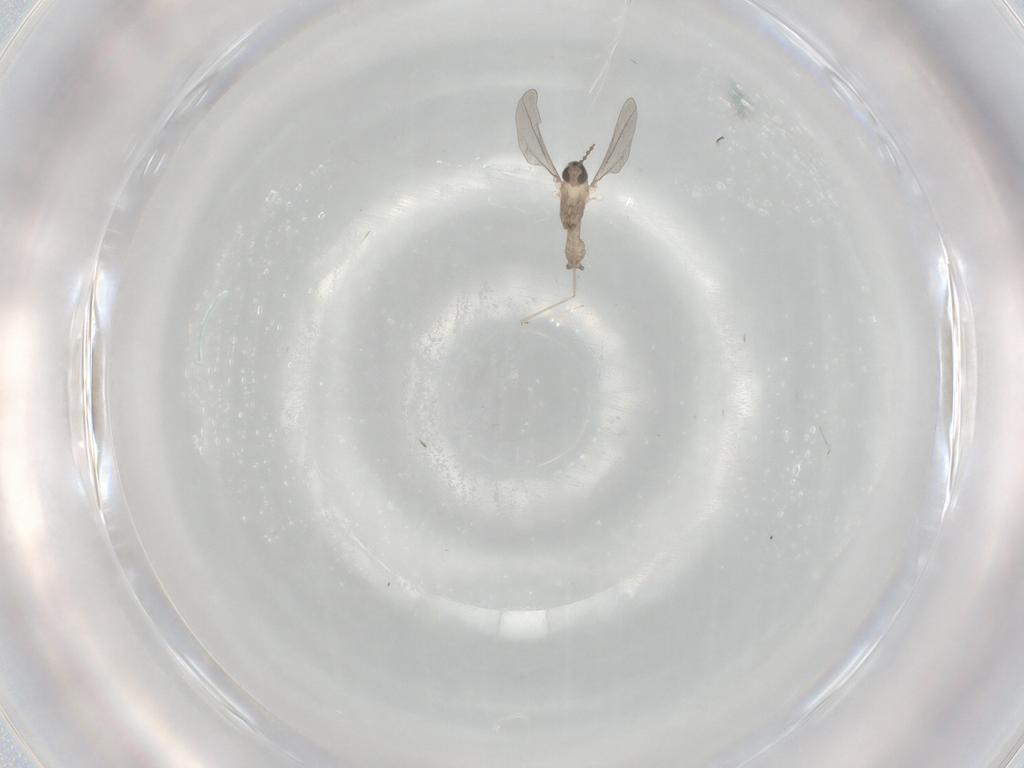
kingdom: Animalia
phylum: Arthropoda
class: Insecta
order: Diptera
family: Cecidomyiidae
